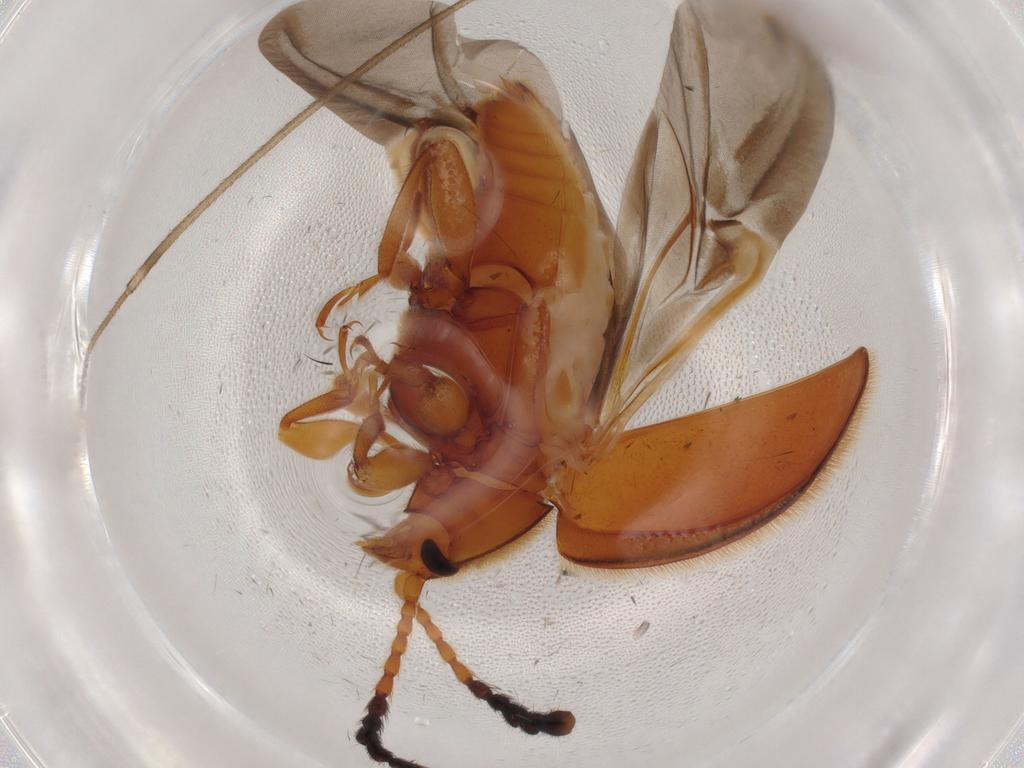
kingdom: Animalia
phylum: Arthropoda
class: Insecta
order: Coleoptera
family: Endomychidae
